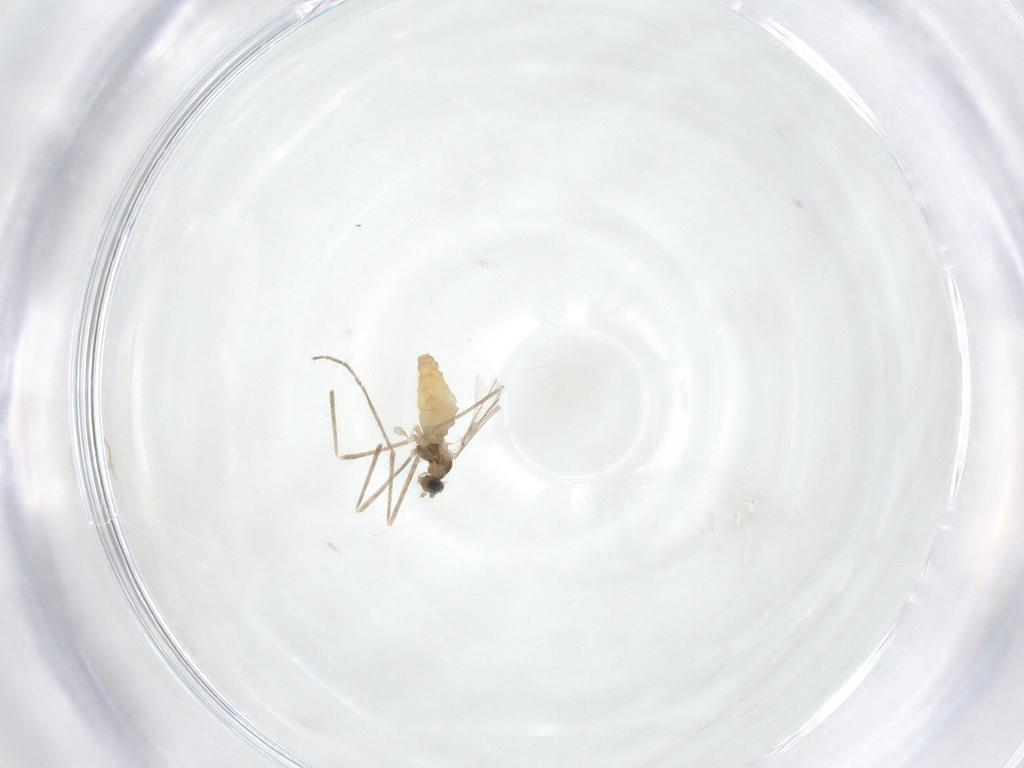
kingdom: Animalia
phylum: Arthropoda
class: Insecta
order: Diptera
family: Cecidomyiidae
